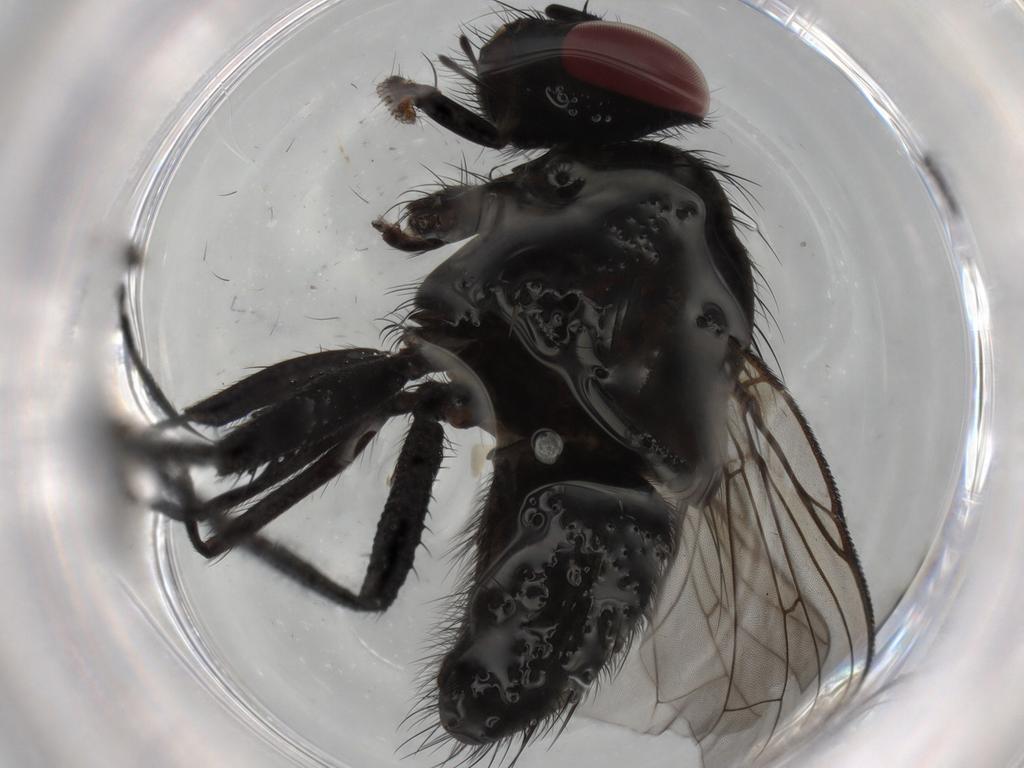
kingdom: Animalia
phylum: Arthropoda
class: Insecta
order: Diptera
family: Muscidae
